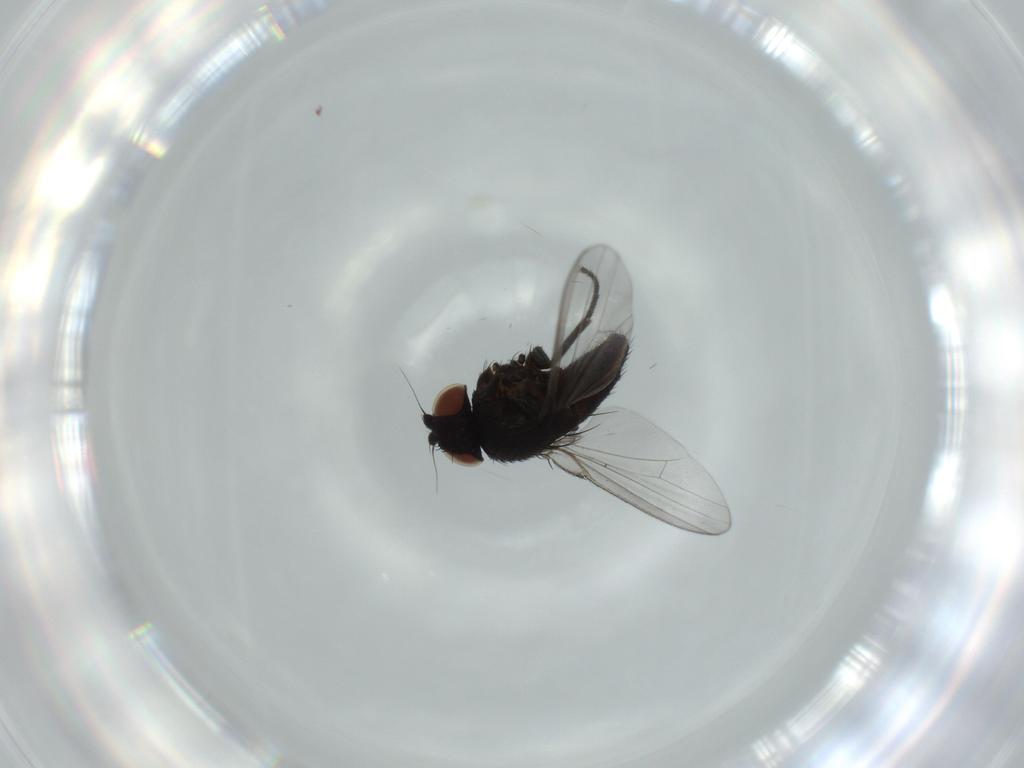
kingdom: Animalia
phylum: Arthropoda
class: Insecta
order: Diptera
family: Milichiidae
